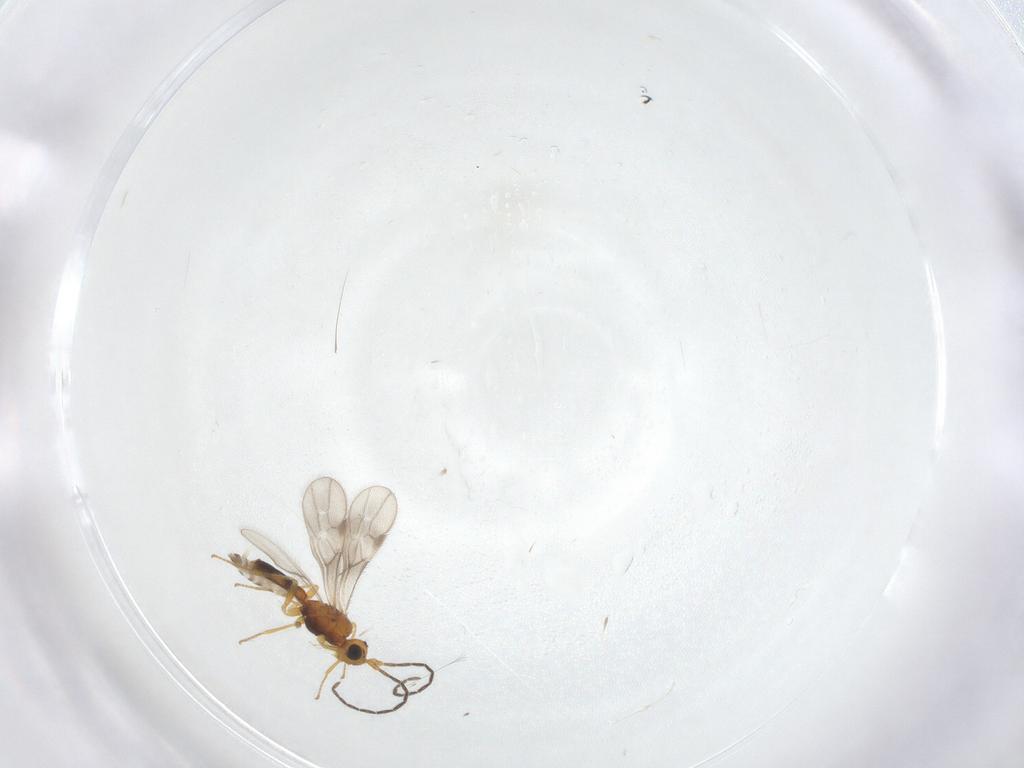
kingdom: Animalia
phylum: Arthropoda
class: Insecta
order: Hymenoptera
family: Braconidae
